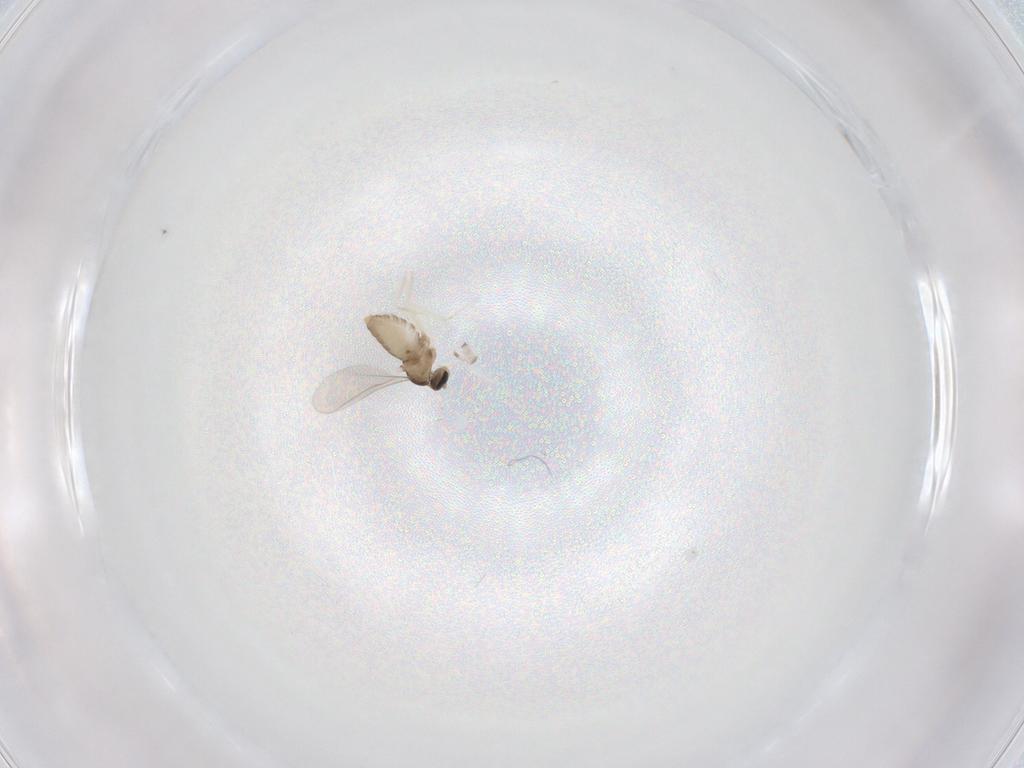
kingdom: Animalia
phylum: Arthropoda
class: Insecta
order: Diptera
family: Cecidomyiidae
